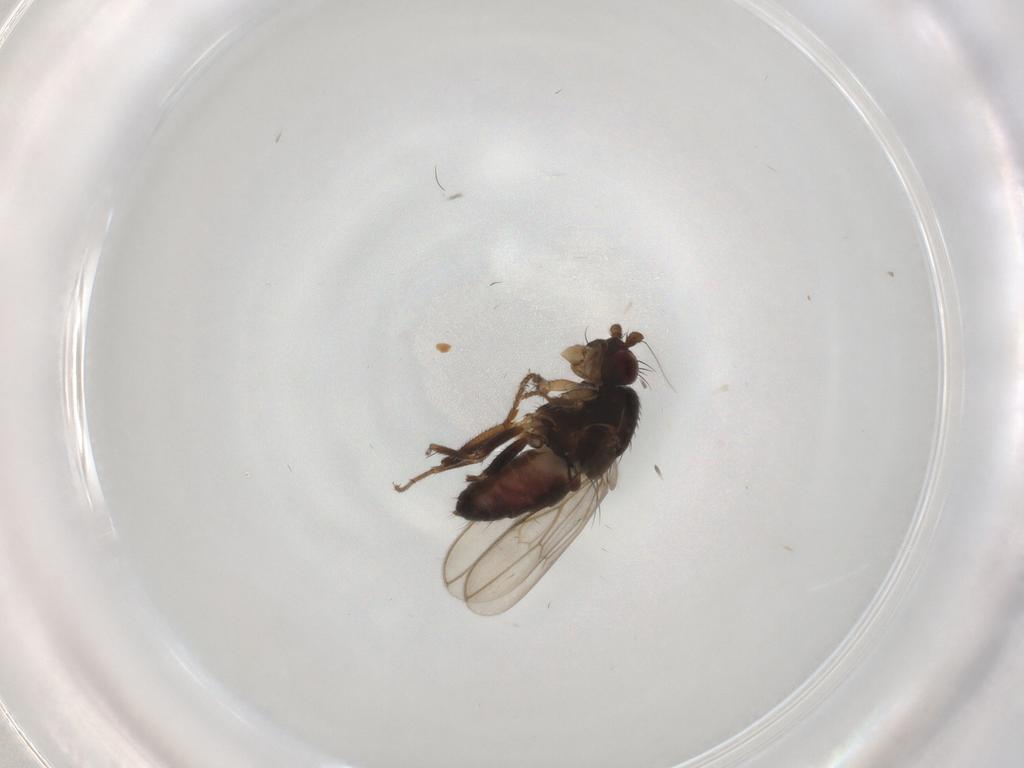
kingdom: Animalia
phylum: Arthropoda
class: Insecta
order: Diptera
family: Sphaeroceridae
